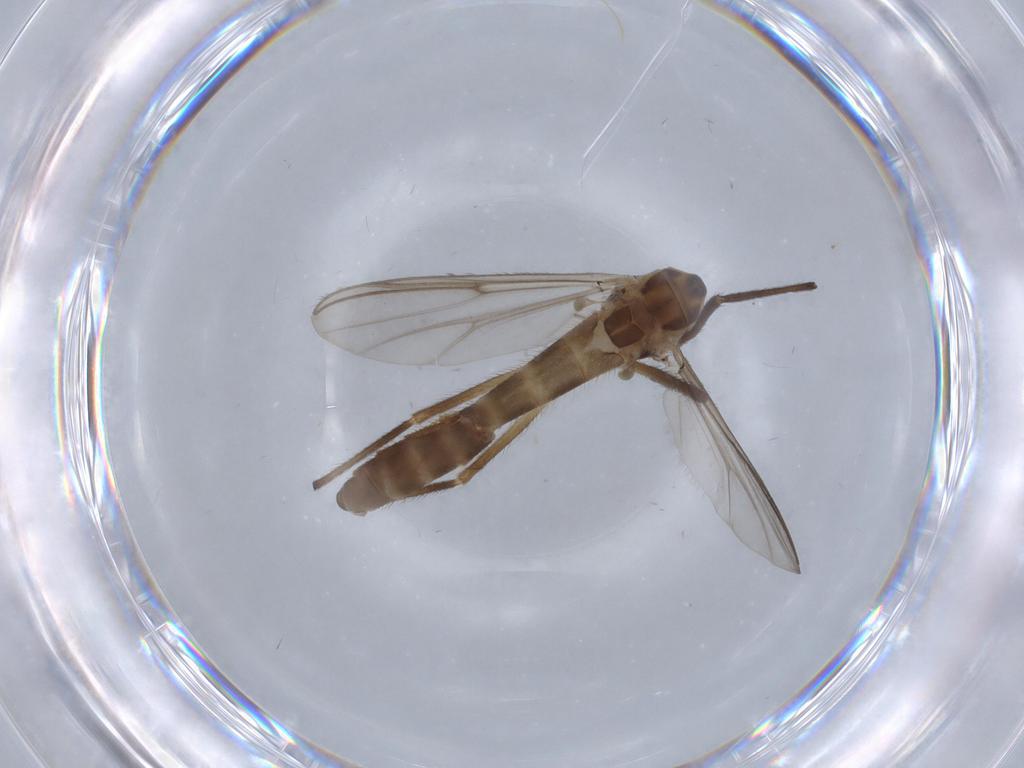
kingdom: Animalia
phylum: Arthropoda
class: Insecta
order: Diptera
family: Chironomidae
